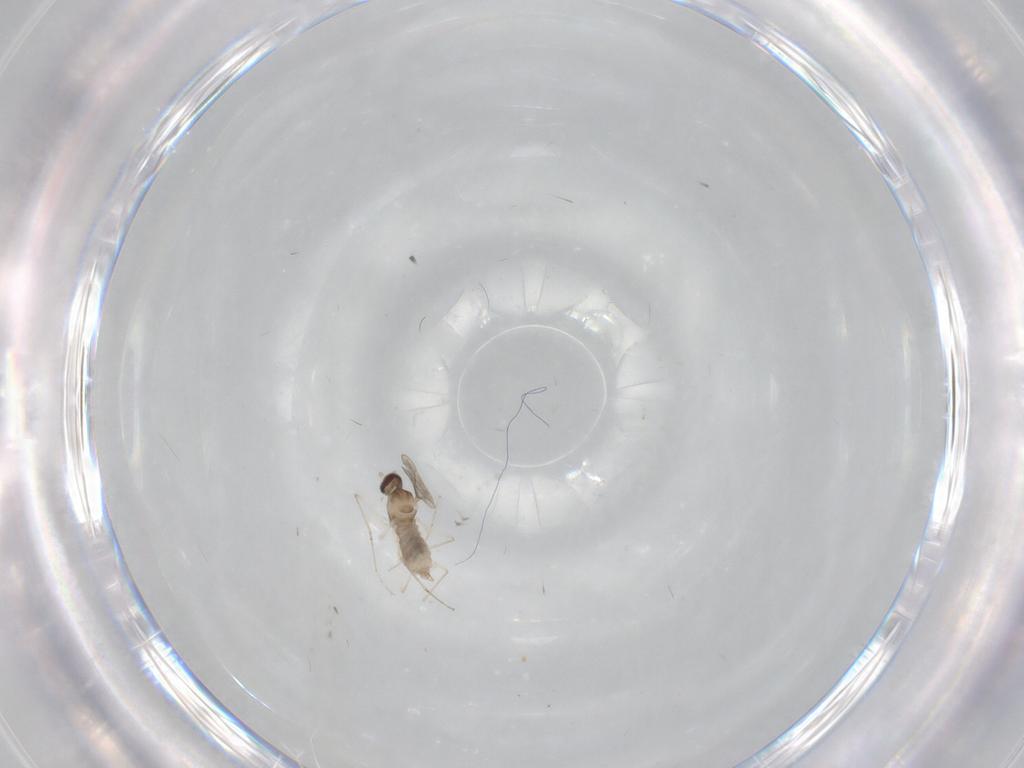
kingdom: Animalia
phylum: Arthropoda
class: Insecta
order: Diptera
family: Cecidomyiidae
